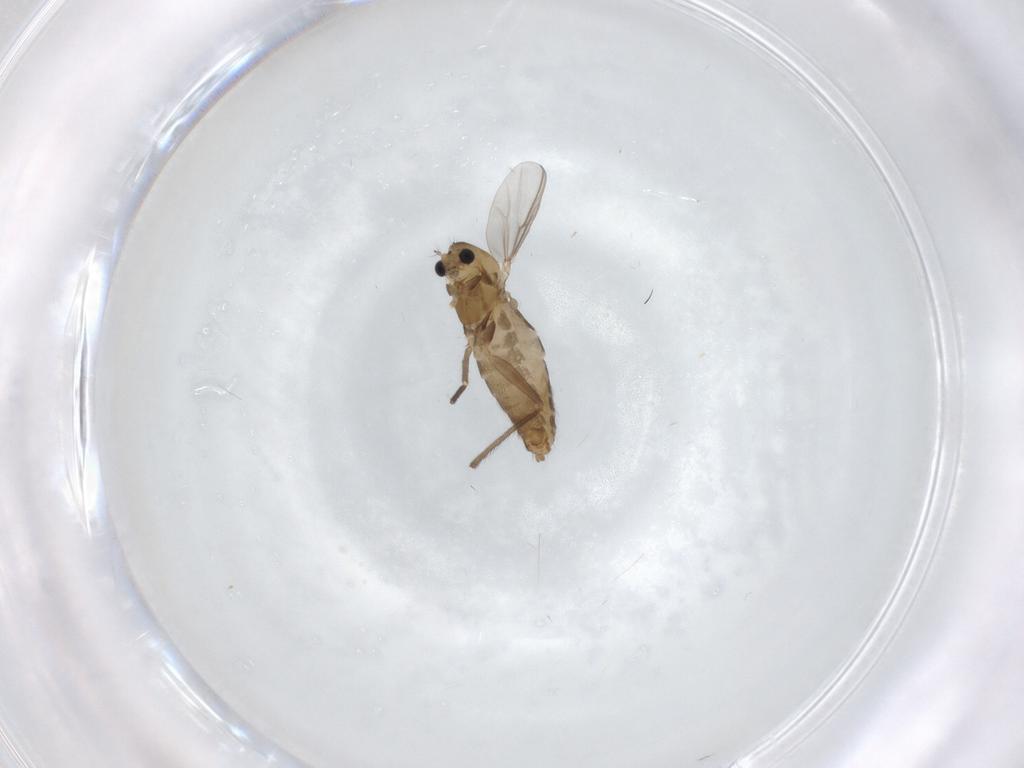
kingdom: Animalia
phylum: Arthropoda
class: Insecta
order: Diptera
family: Chironomidae
